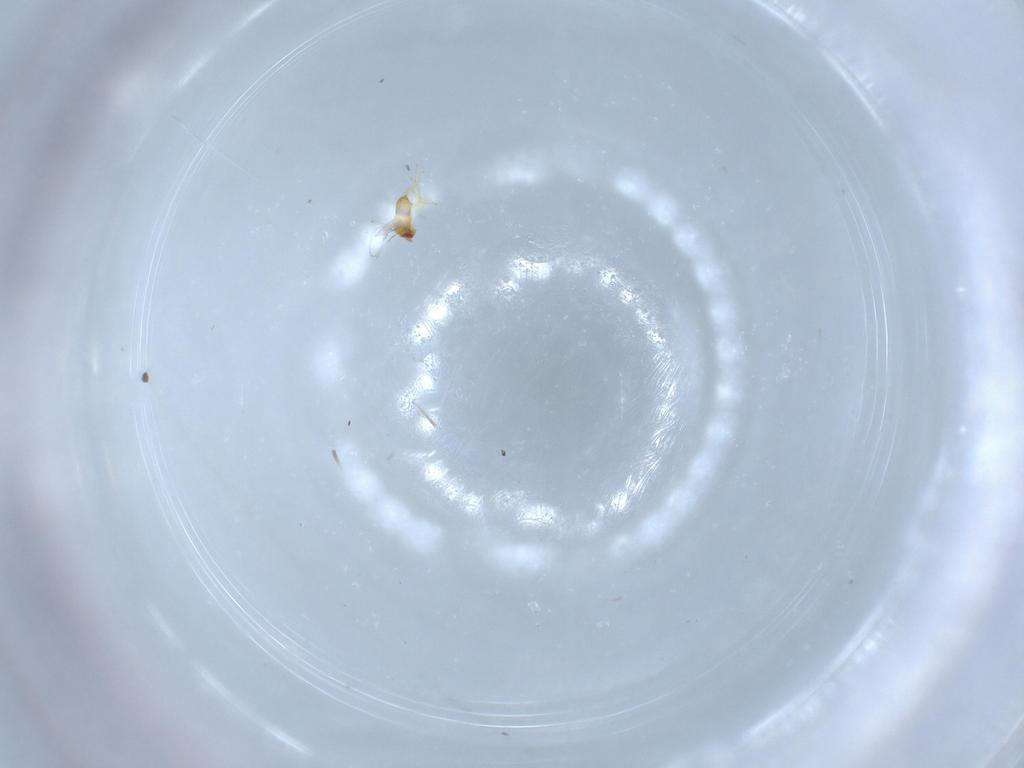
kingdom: Animalia
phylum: Arthropoda
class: Insecta
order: Hymenoptera
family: Trichogrammatidae
